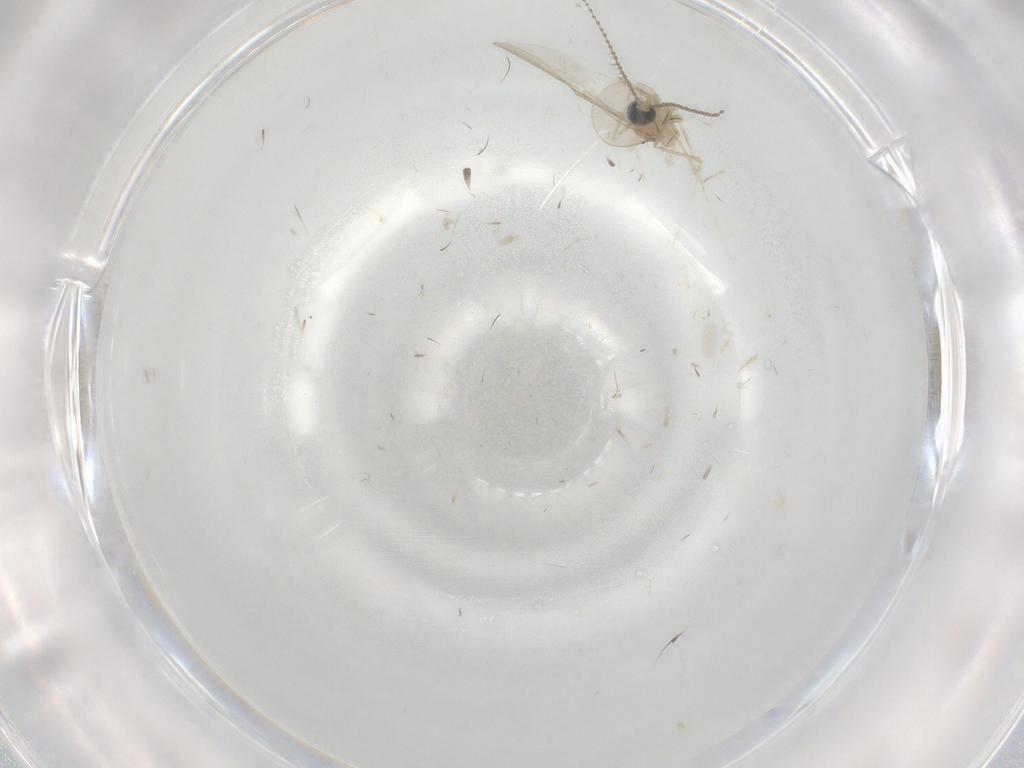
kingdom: Animalia
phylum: Arthropoda
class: Insecta
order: Diptera
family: Cecidomyiidae
